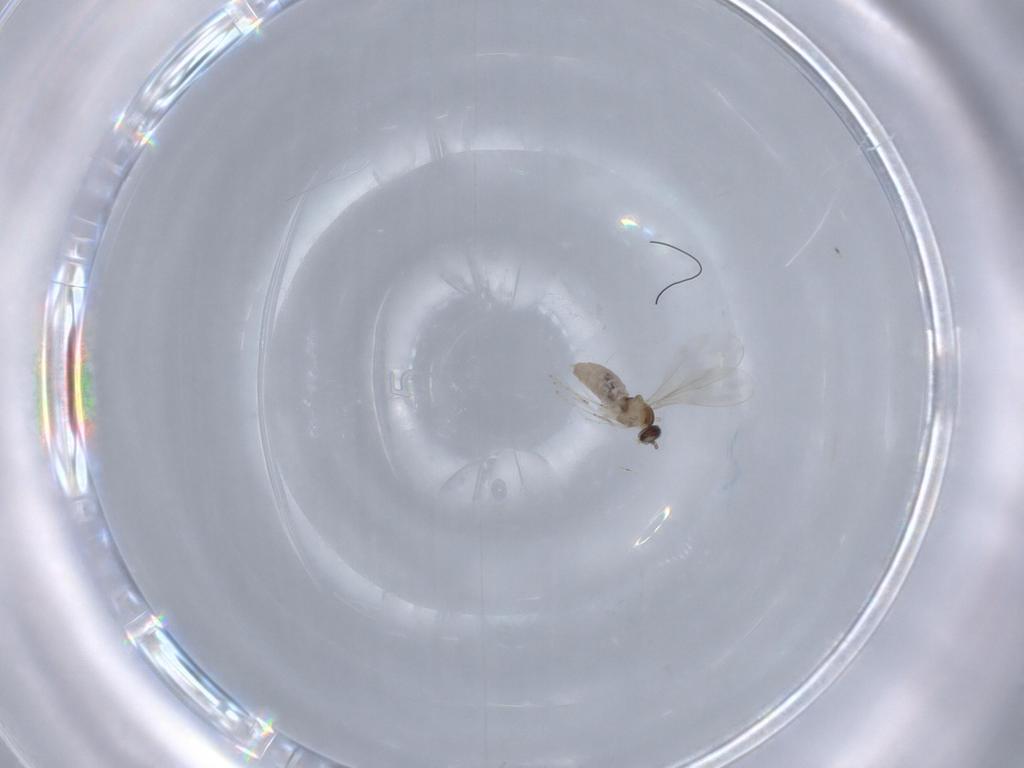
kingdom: Animalia
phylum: Arthropoda
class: Insecta
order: Diptera
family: Cecidomyiidae
